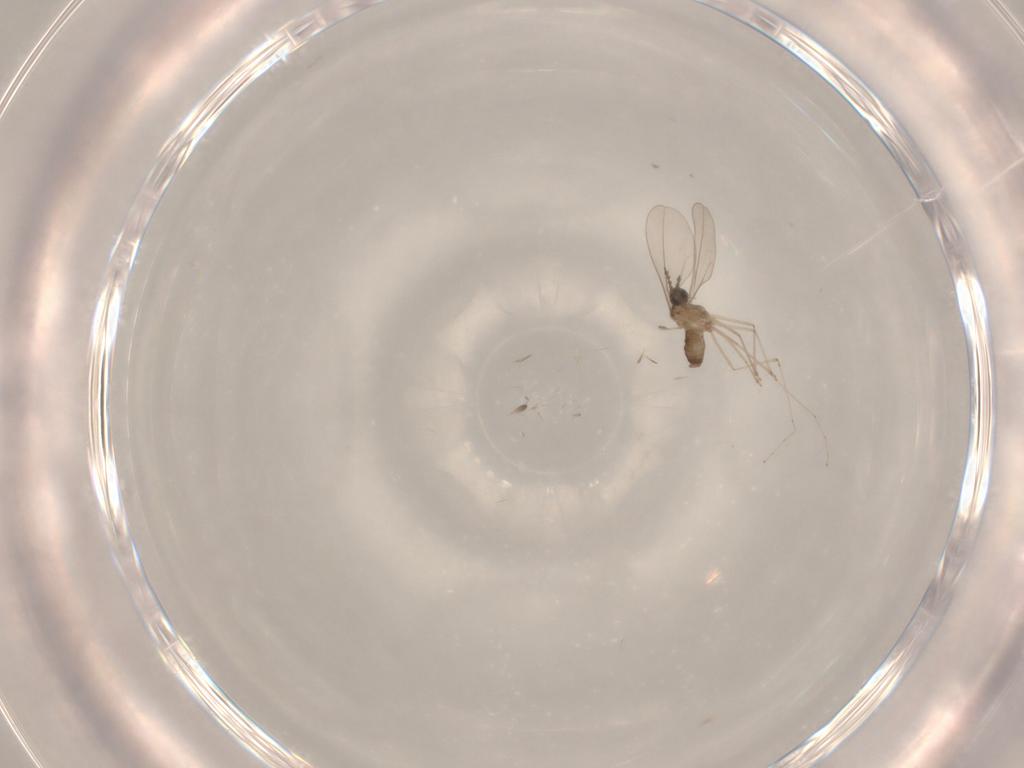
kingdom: Animalia
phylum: Arthropoda
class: Insecta
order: Diptera
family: Cecidomyiidae
